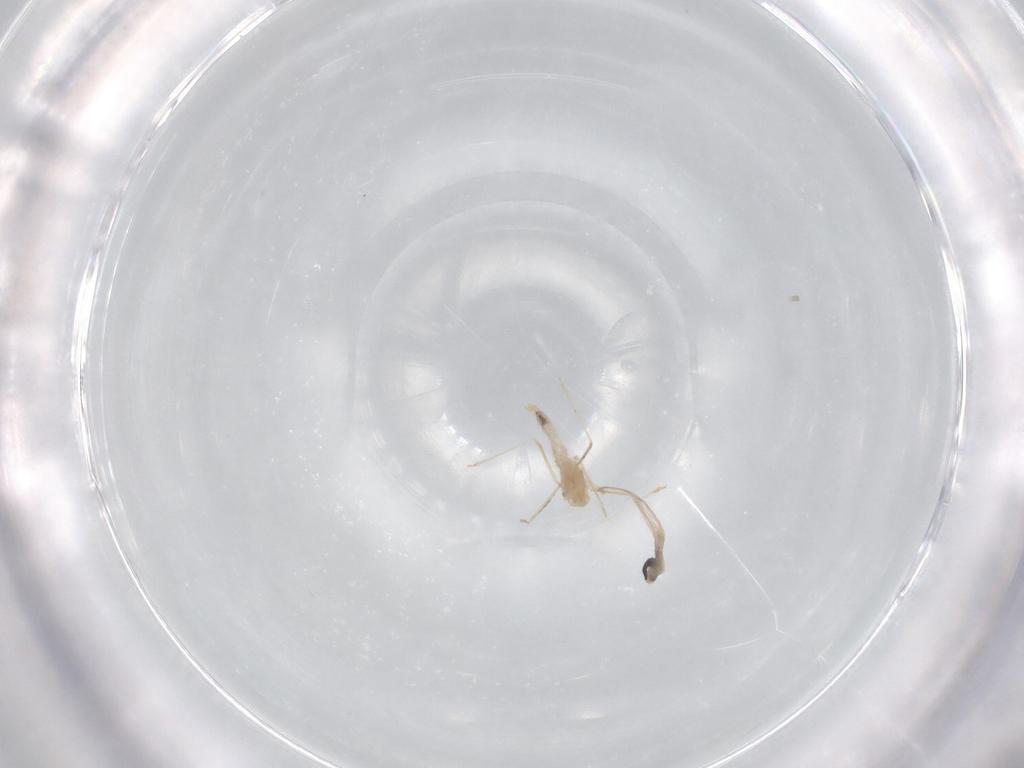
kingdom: Animalia
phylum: Arthropoda
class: Insecta
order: Diptera
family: Cecidomyiidae
